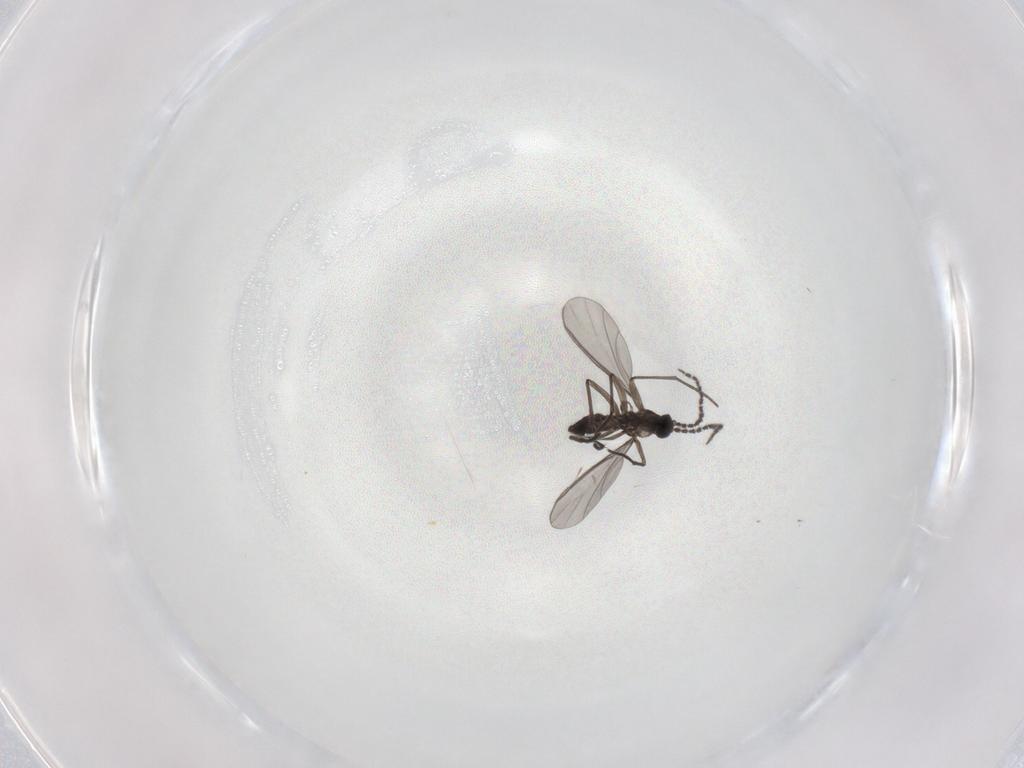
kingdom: Animalia
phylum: Arthropoda
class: Insecta
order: Diptera
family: Drosophilidae
